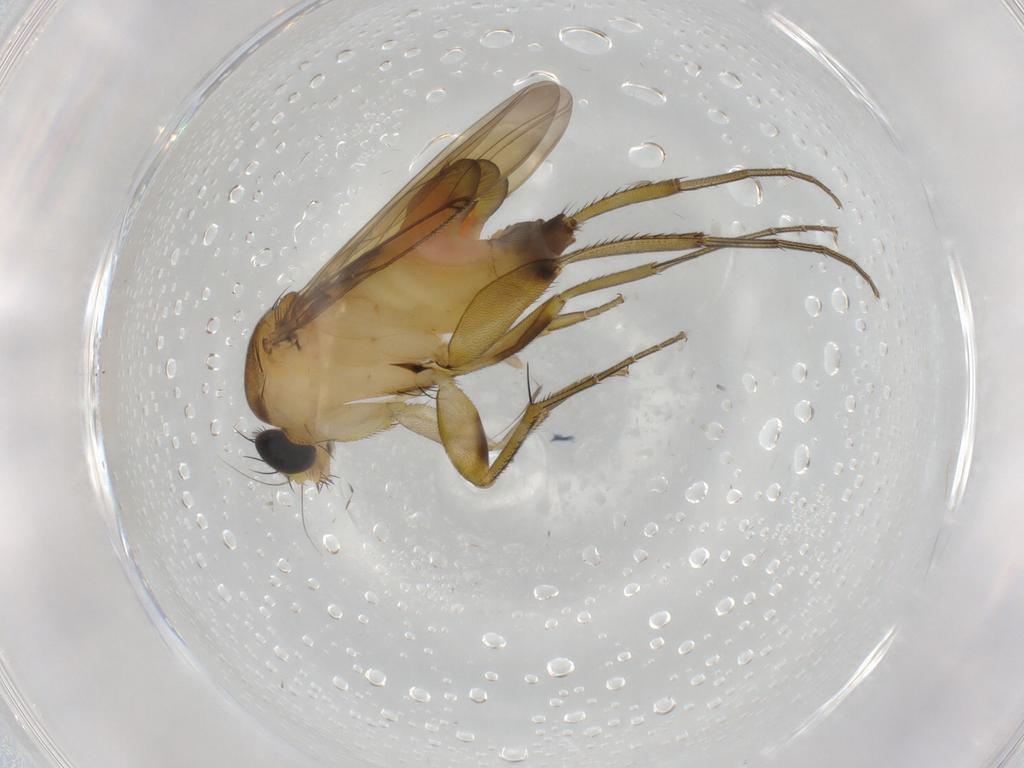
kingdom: Animalia
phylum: Arthropoda
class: Insecta
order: Diptera
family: Phoridae
